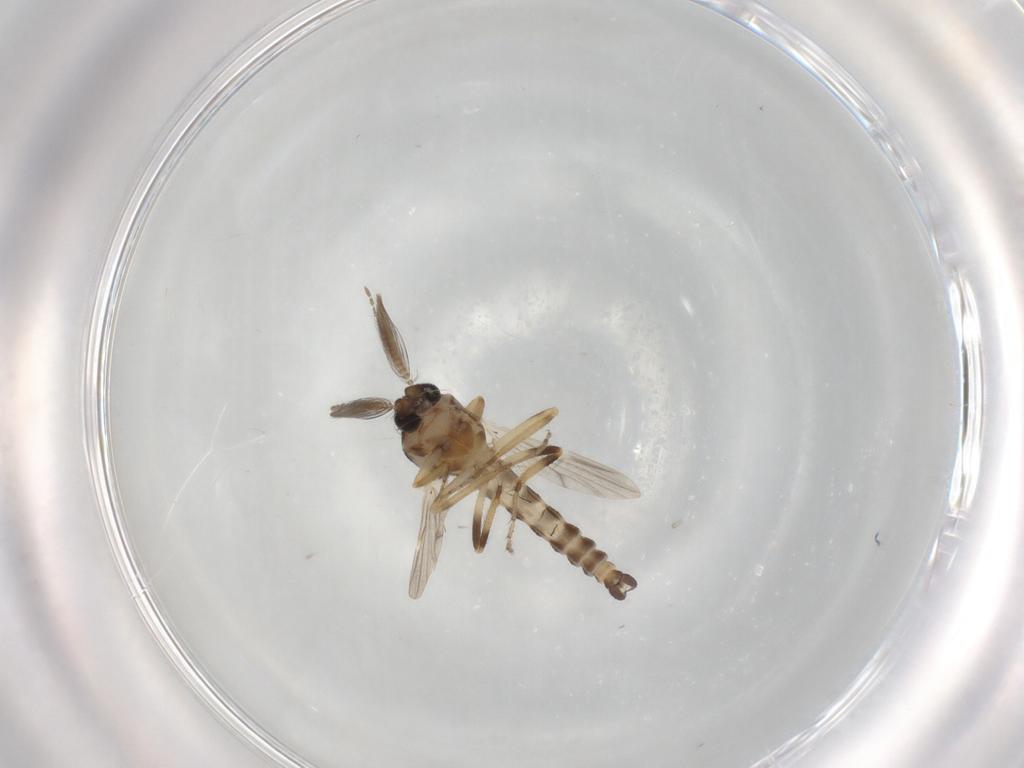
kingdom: Animalia
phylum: Arthropoda
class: Insecta
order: Diptera
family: Ceratopogonidae
